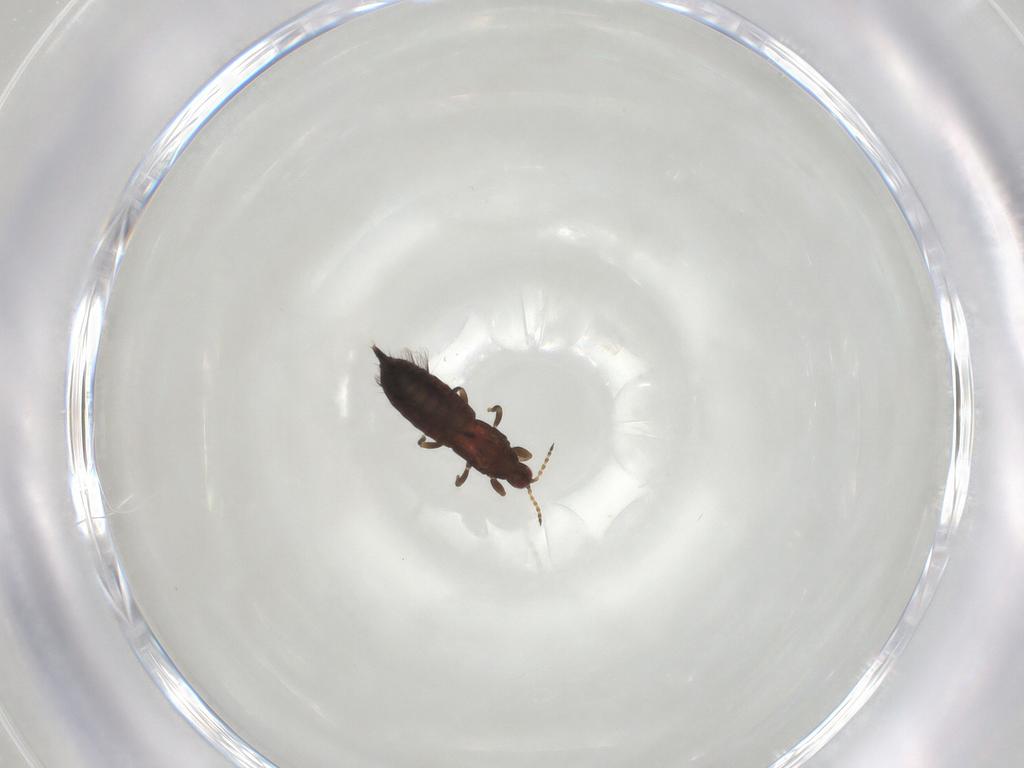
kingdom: Animalia
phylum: Arthropoda
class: Insecta
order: Thysanoptera
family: Phlaeothripidae
